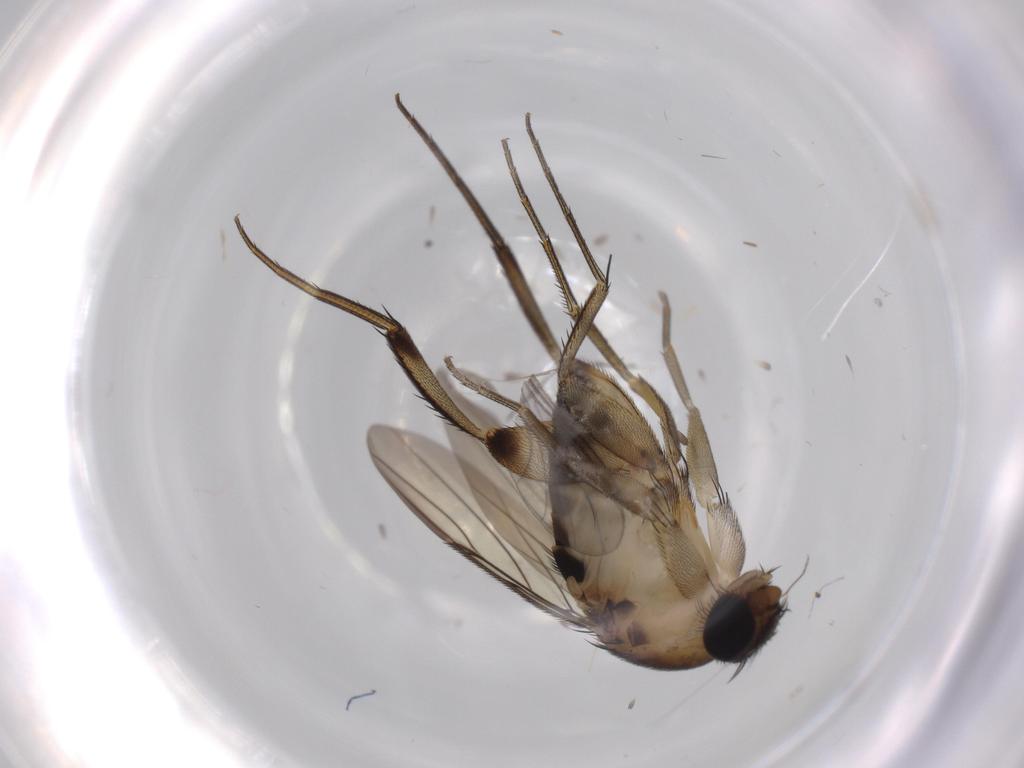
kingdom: Animalia
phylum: Arthropoda
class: Insecta
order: Diptera
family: Phoridae
